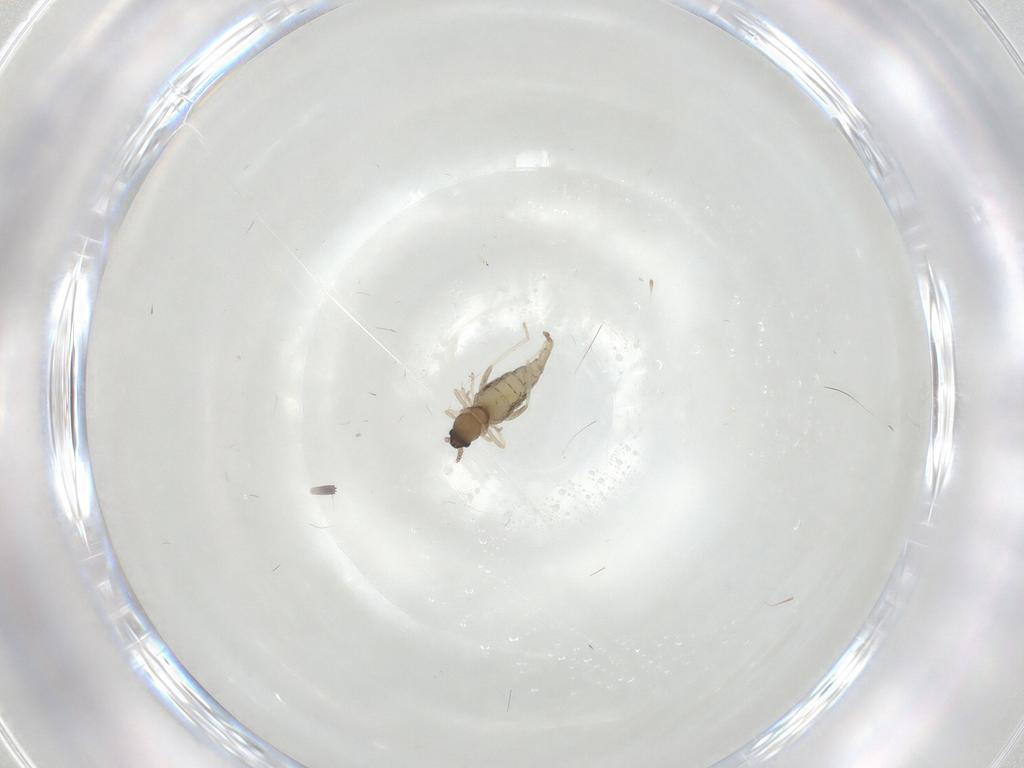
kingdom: Animalia
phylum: Arthropoda
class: Insecta
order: Diptera
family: Cecidomyiidae
